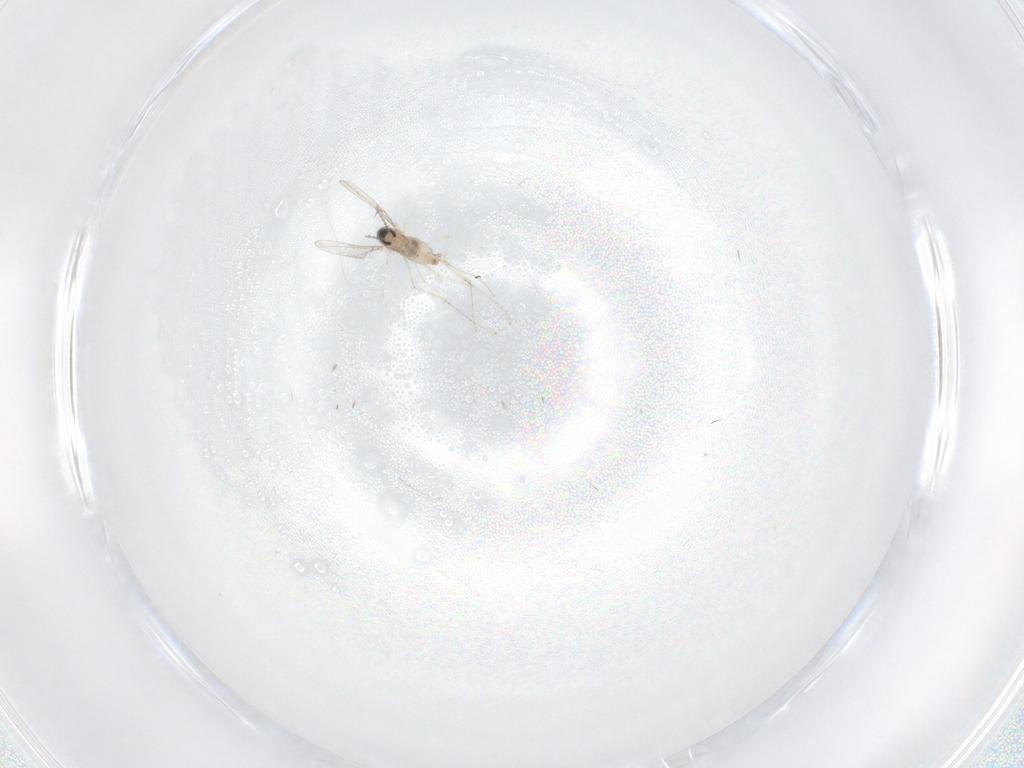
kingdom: Animalia
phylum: Arthropoda
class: Insecta
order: Diptera
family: Cecidomyiidae
